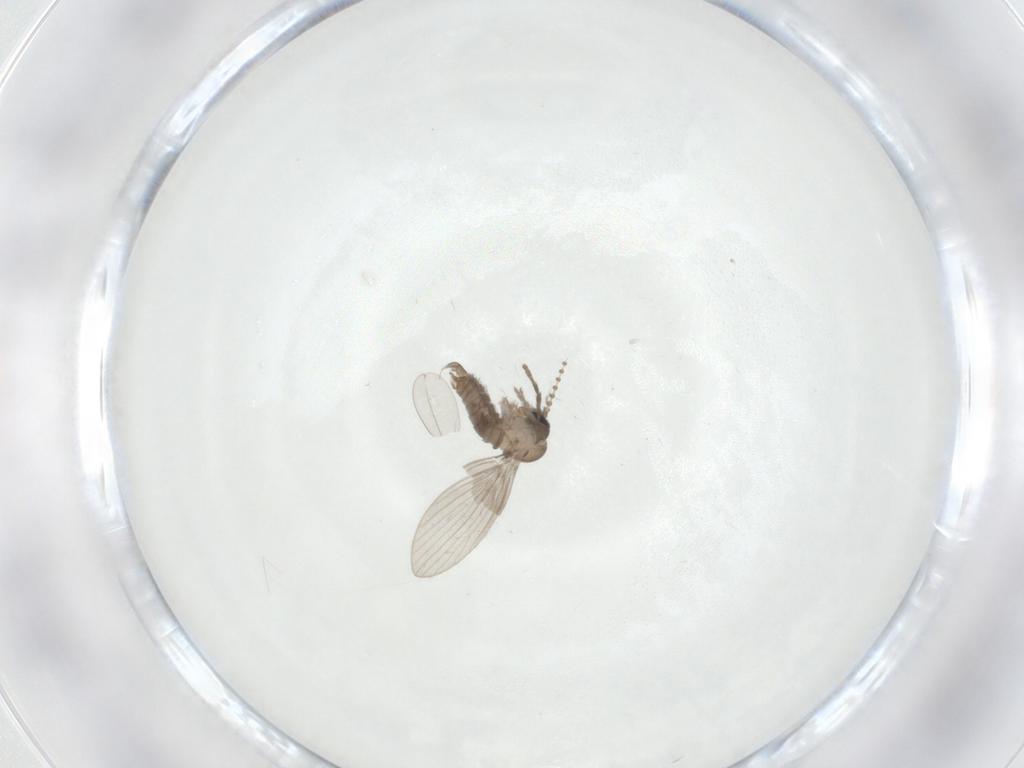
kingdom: Animalia
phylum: Arthropoda
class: Insecta
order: Diptera
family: Psychodidae
